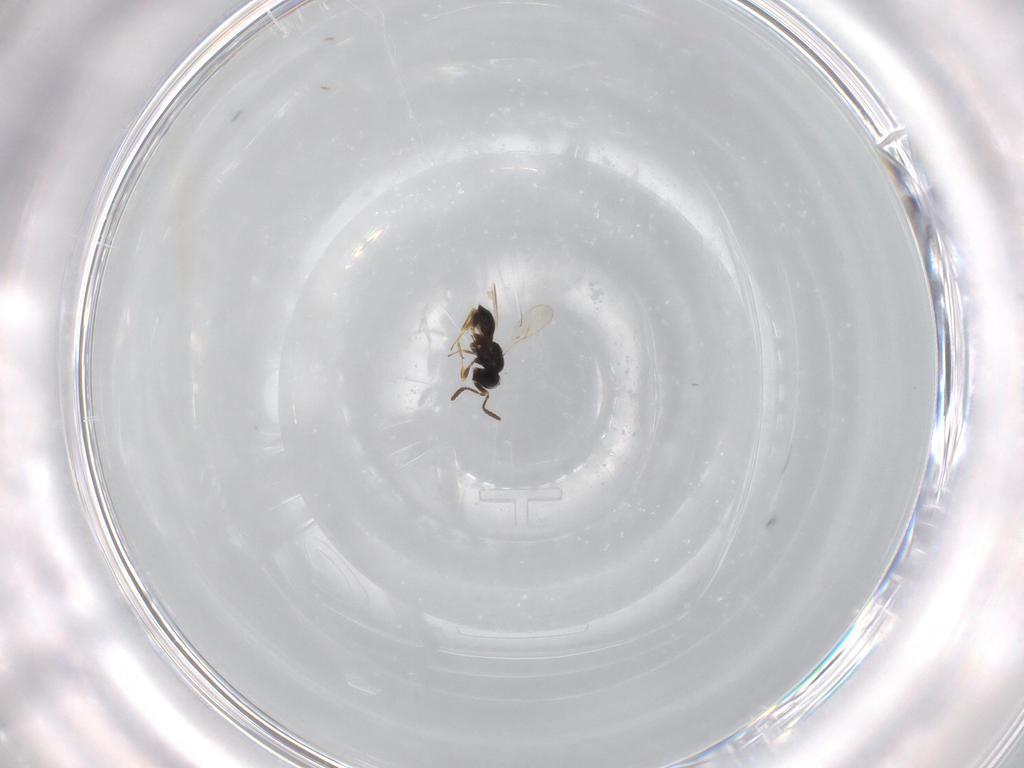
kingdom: Animalia
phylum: Arthropoda
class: Insecta
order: Hymenoptera
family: Scelionidae
